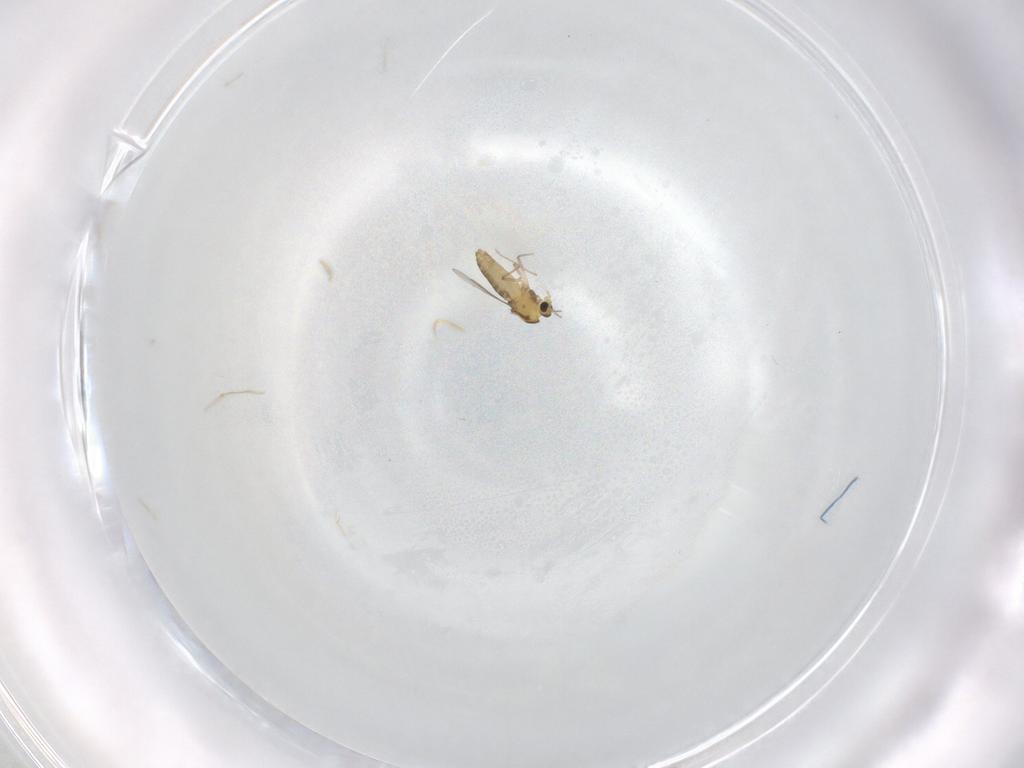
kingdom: Animalia
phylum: Arthropoda
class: Insecta
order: Diptera
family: Chironomidae
